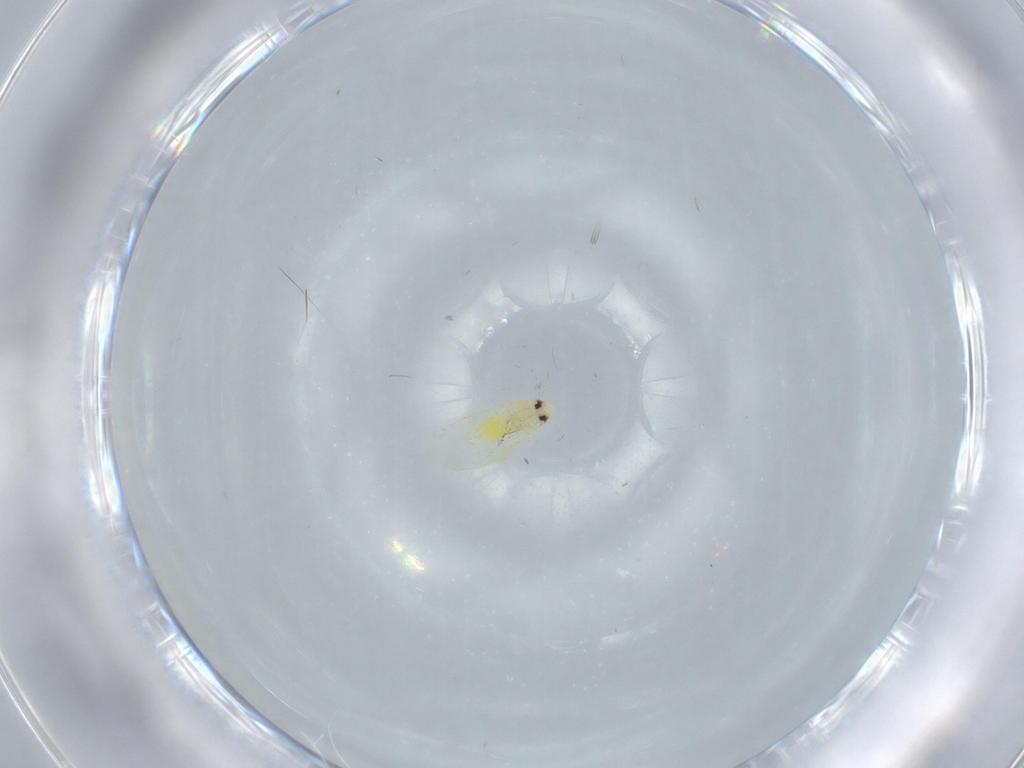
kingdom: Animalia
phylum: Arthropoda
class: Insecta
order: Hemiptera
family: Aleyrodidae
